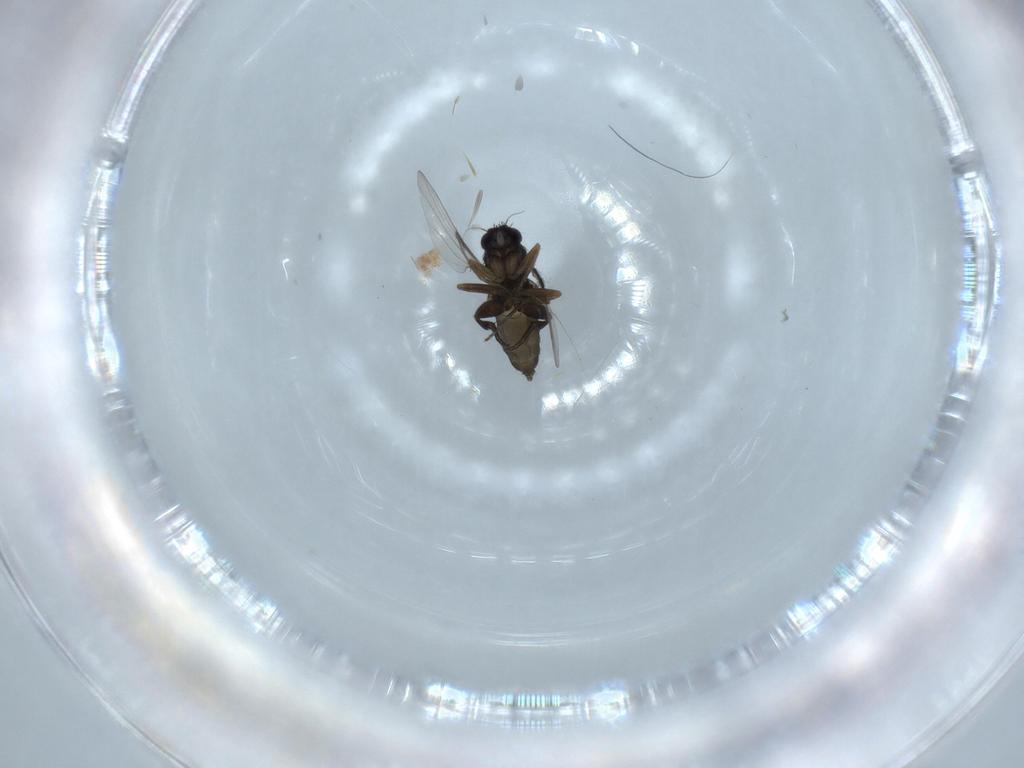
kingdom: Animalia
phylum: Arthropoda
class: Insecta
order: Diptera
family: Phoridae
